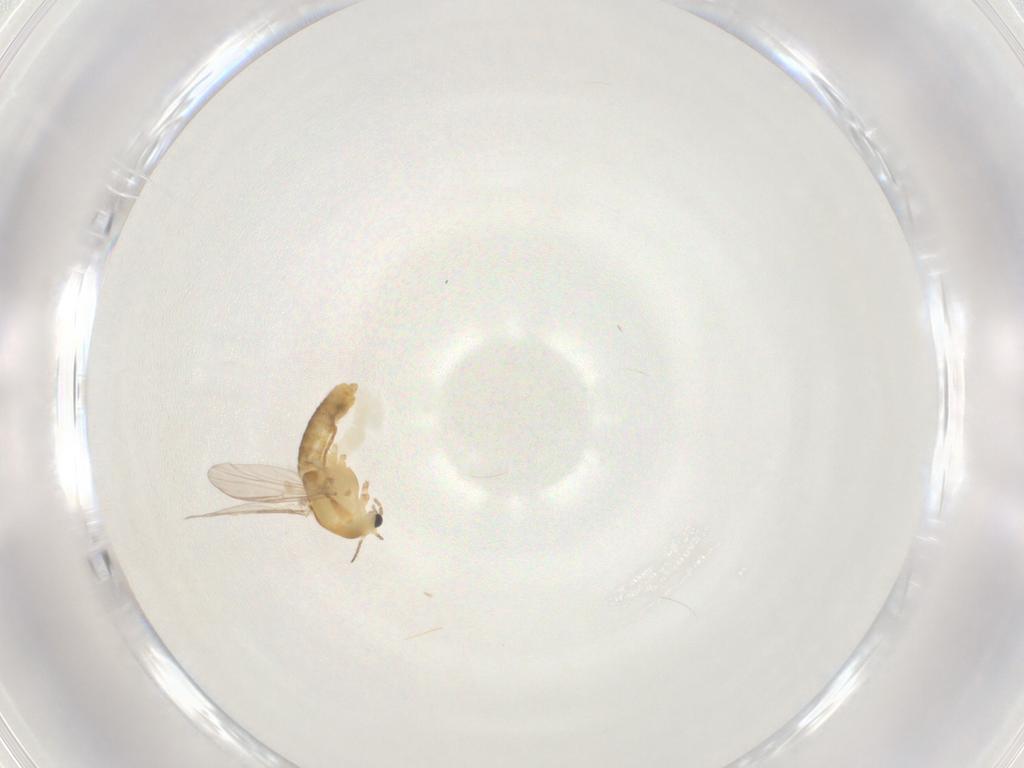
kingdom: Animalia
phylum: Arthropoda
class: Insecta
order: Diptera
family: Chironomidae
